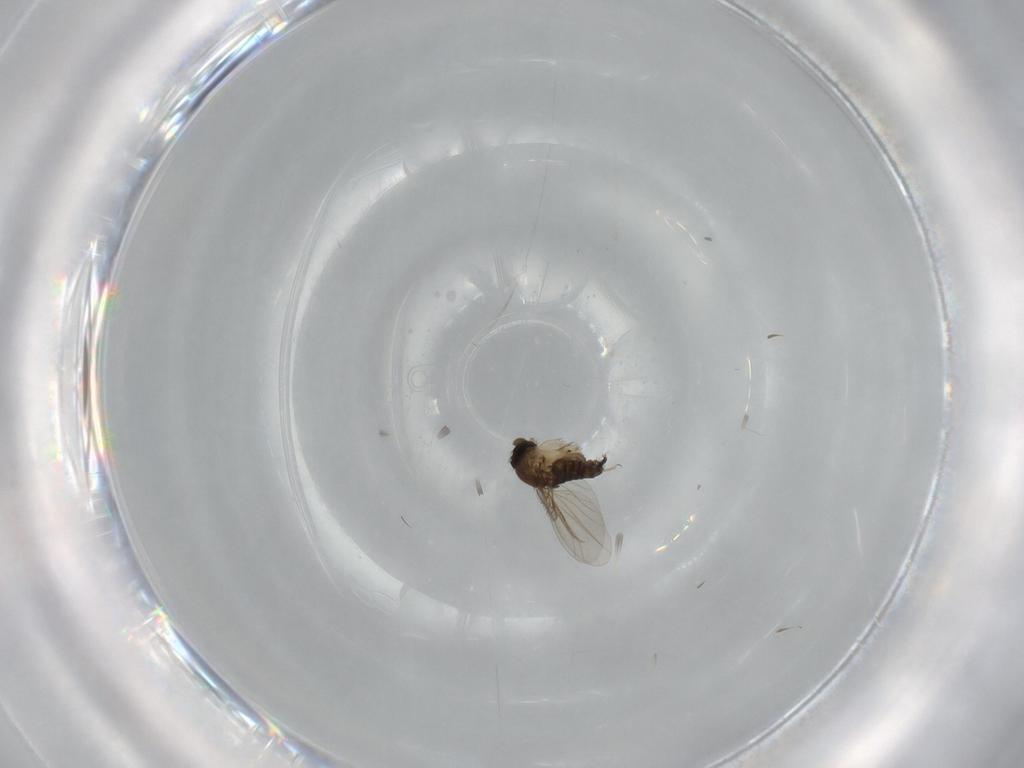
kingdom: Animalia
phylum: Arthropoda
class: Insecta
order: Diptera
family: Phoridae
